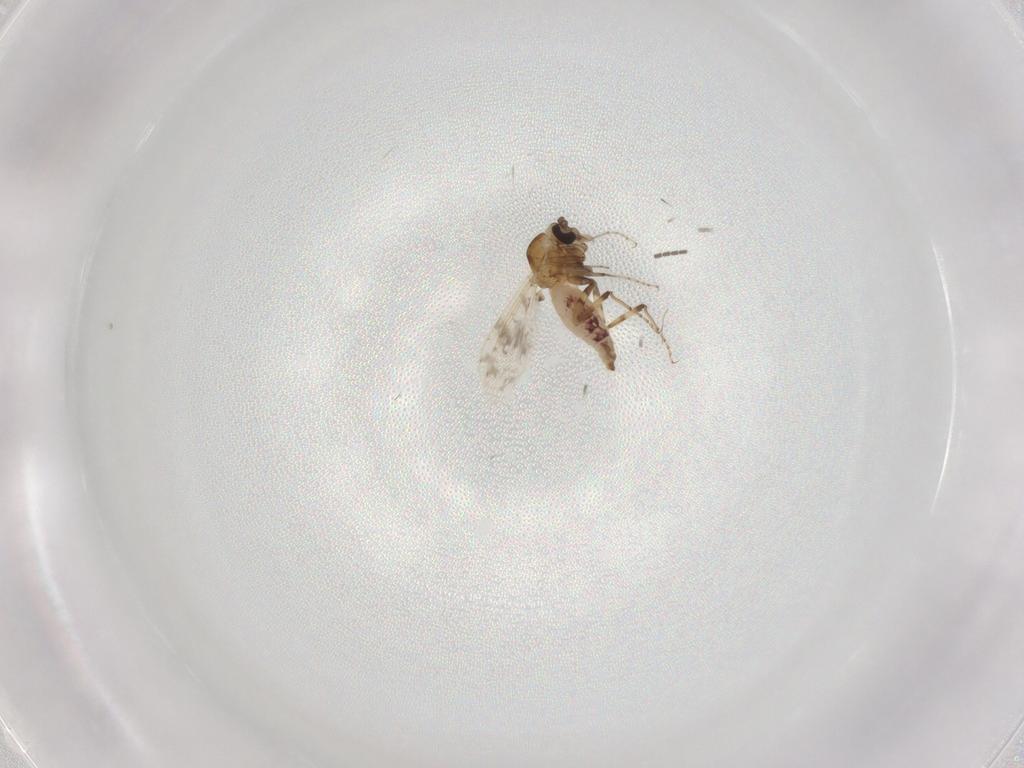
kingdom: Animalia
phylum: Arthropoda
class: Insecta
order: Diptera
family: Ceratopogonidae
